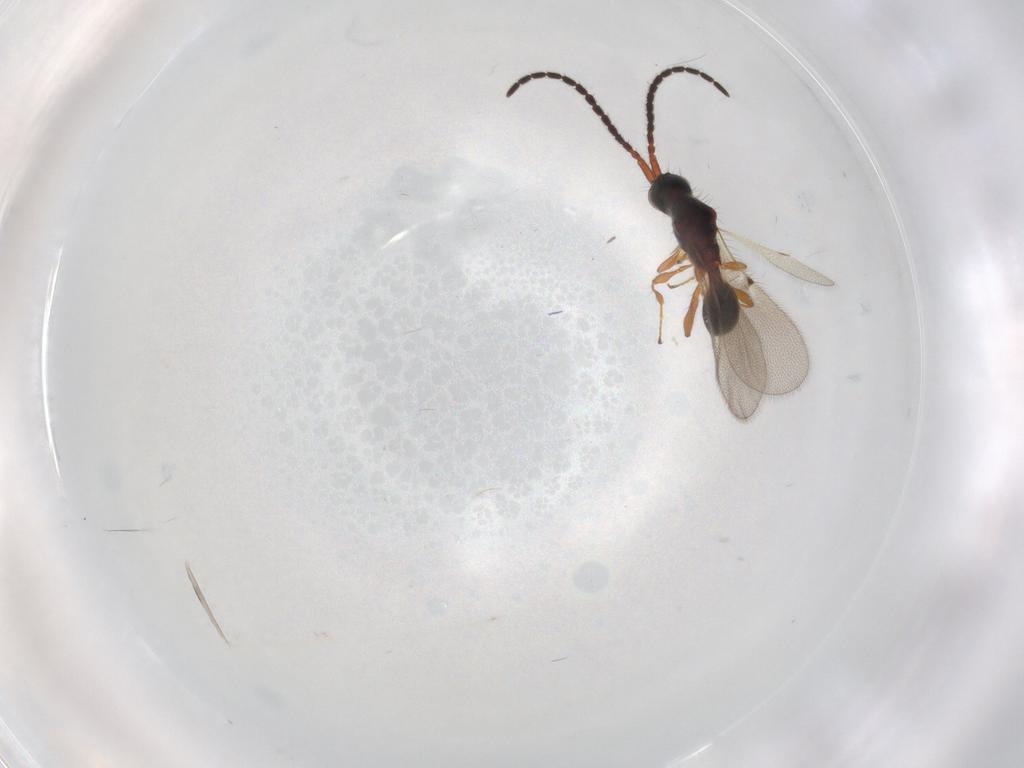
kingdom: Animalia
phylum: Arthropoda
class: Insecta
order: Hymenoptera
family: Diapriidae
